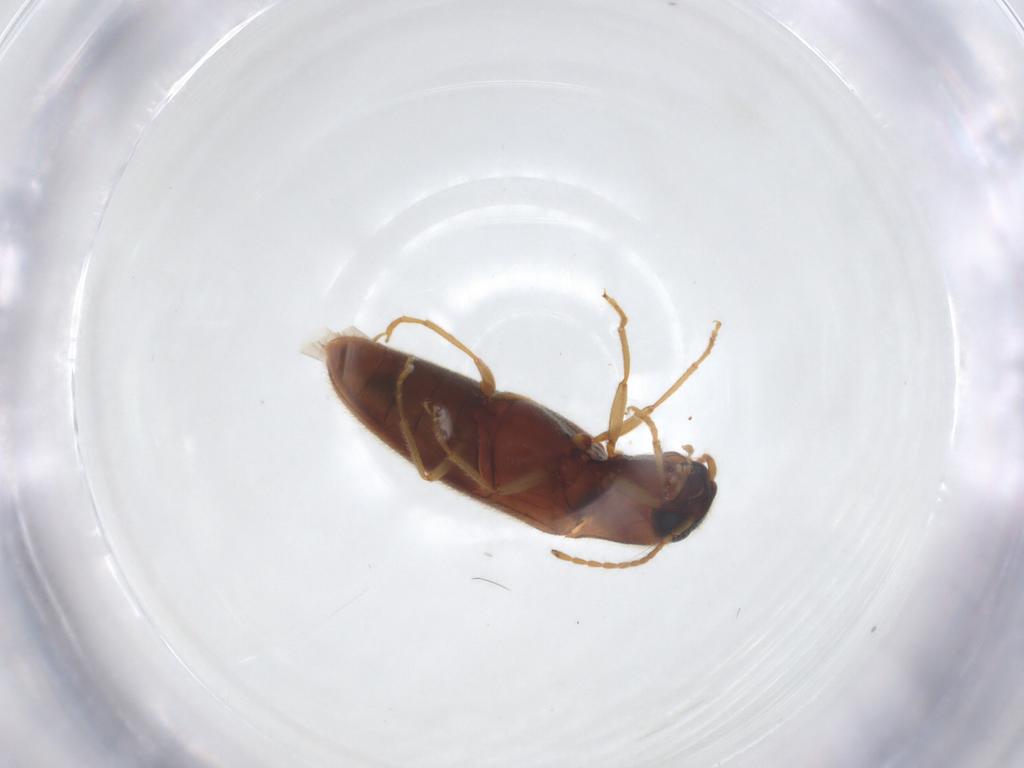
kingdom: Animalia
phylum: Arthropoda
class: Insecta
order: Coleoptera
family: Elateridae
